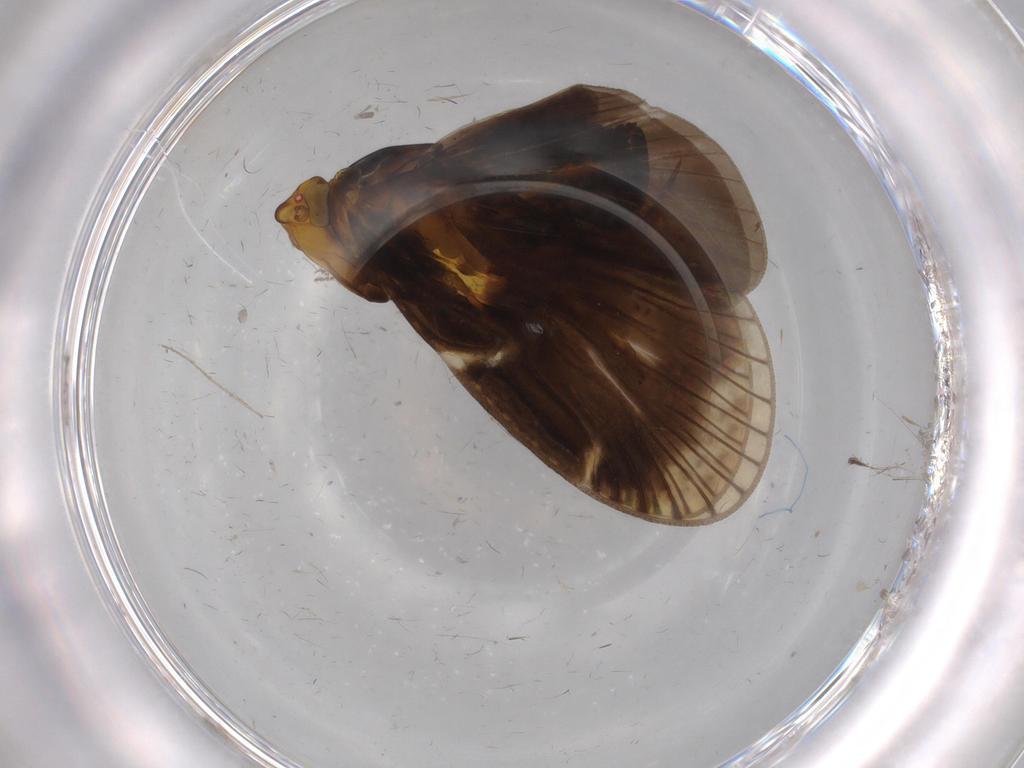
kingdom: Animalia
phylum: Arthropoda
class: Insecta
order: Hemiptera
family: Cixiidae
